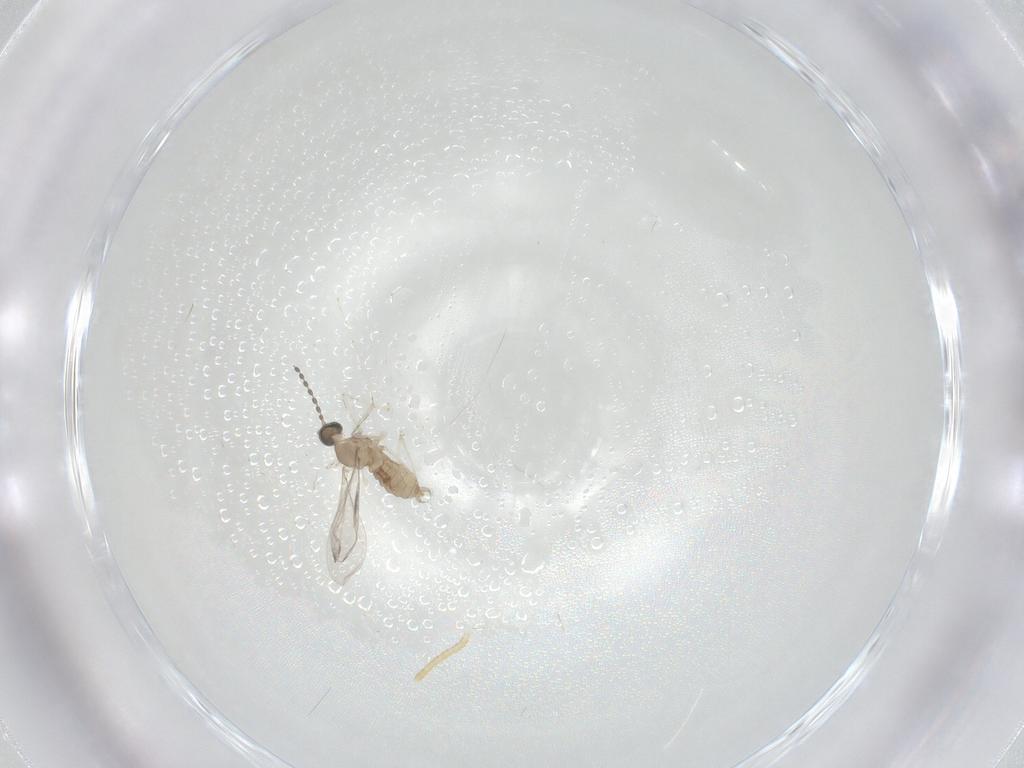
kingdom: Animalia
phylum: Arthropoda
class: Insecta
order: Lepidoptera
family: Tineidae
